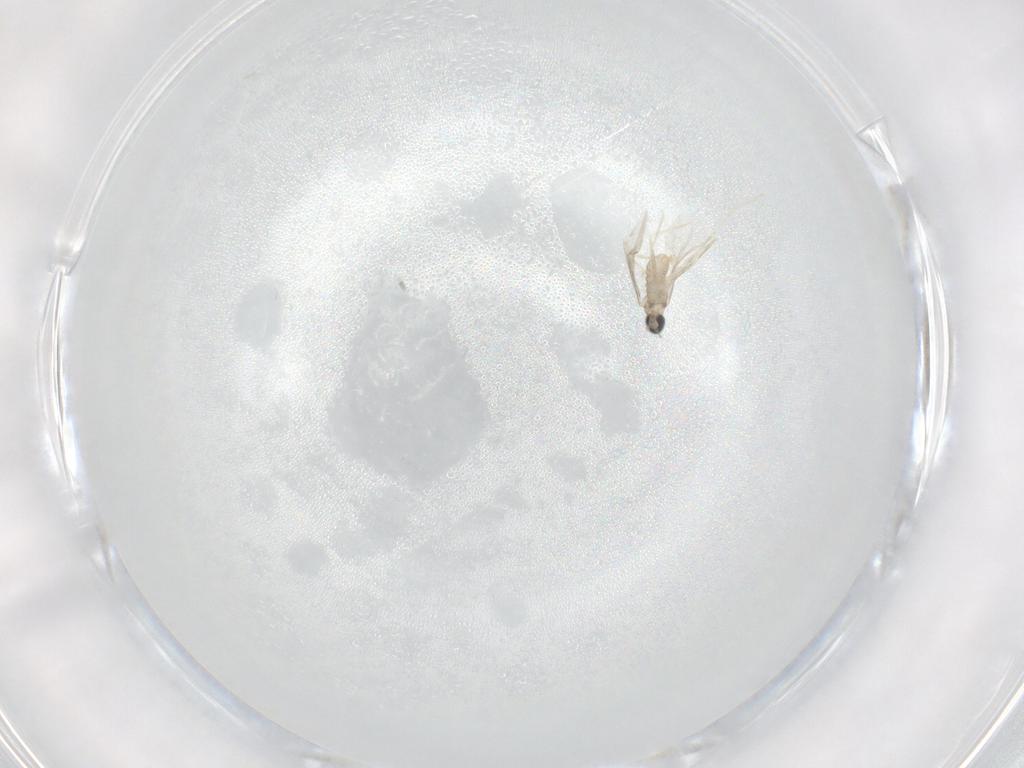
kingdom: Animalia
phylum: Arthropoda
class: Insecta
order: Diptera
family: Cecidomyiidae
